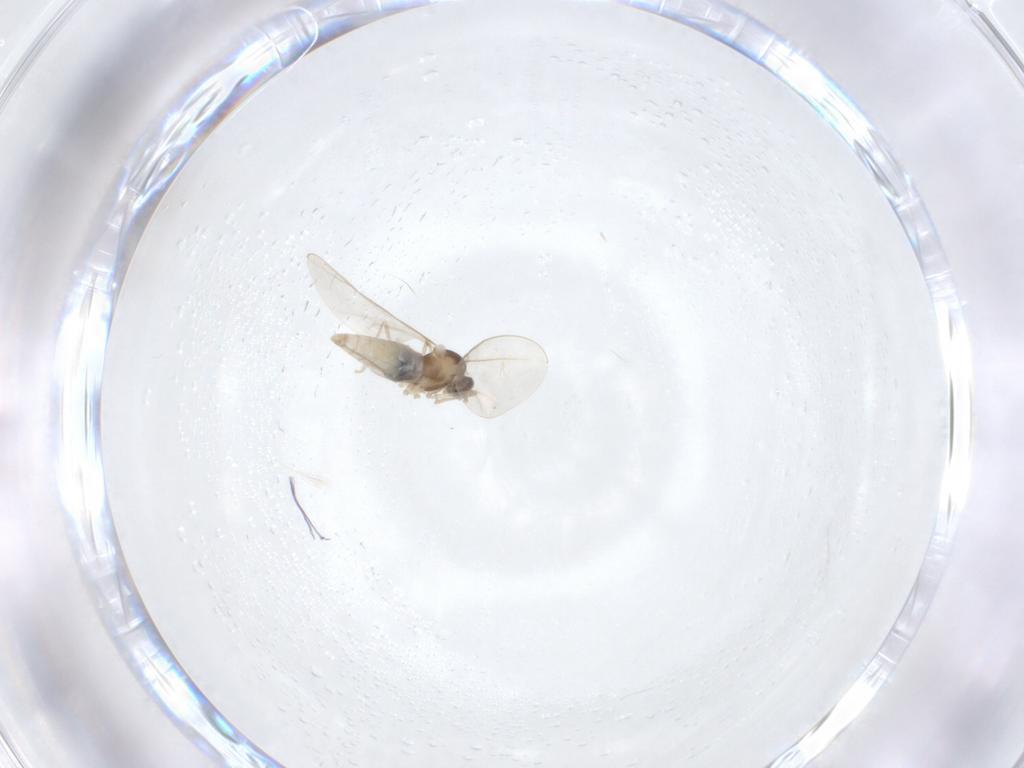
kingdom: Animalia
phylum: Arthropoda
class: Insecta
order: Diptera
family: Cecidomyiidae
